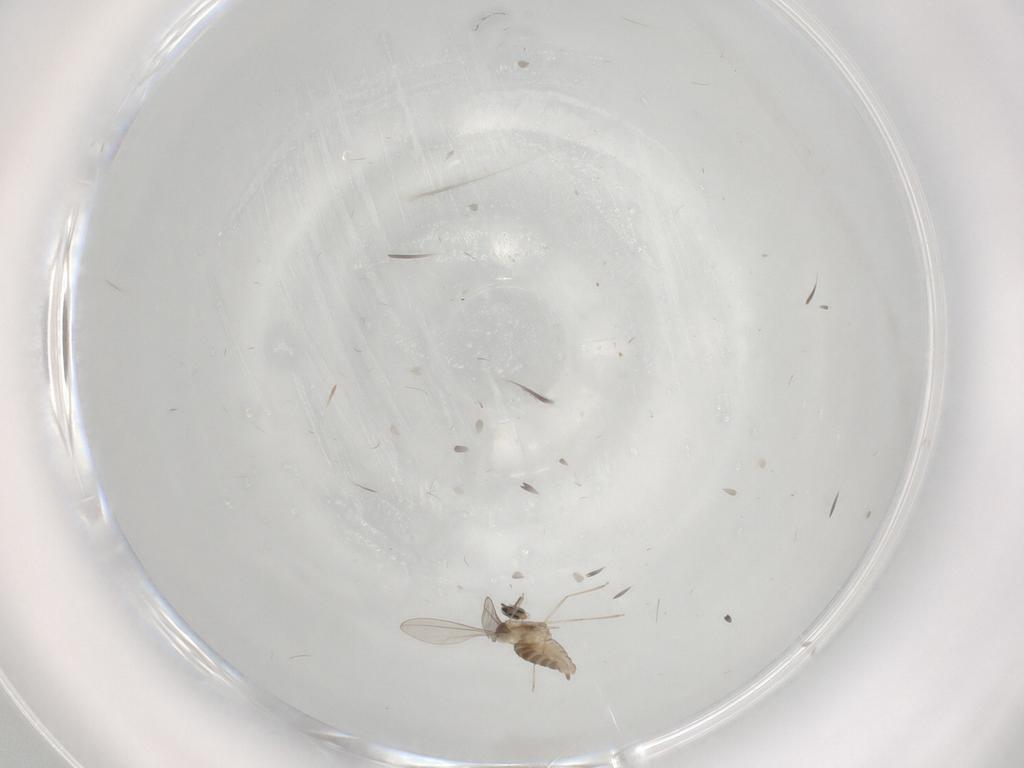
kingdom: Animalia
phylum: Arthropoda
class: Insecta
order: Diptera
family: Cecidomyiidae
